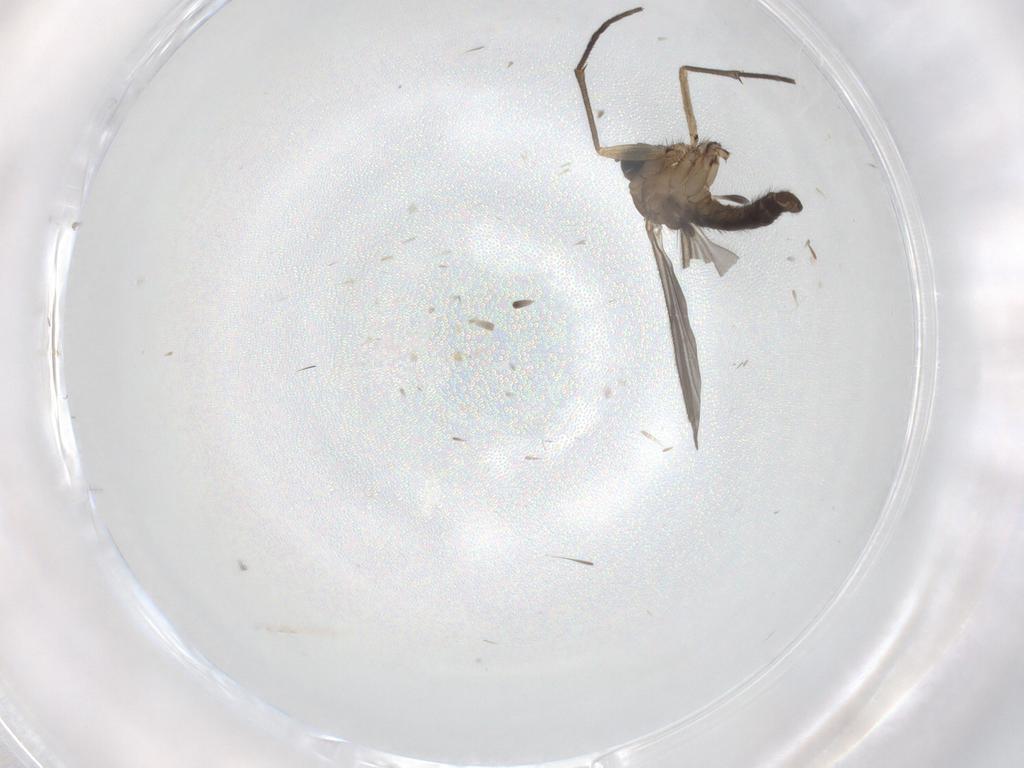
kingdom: Animalia
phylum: Arthropoda
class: Insecta
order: Diptera
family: Sciaridae
